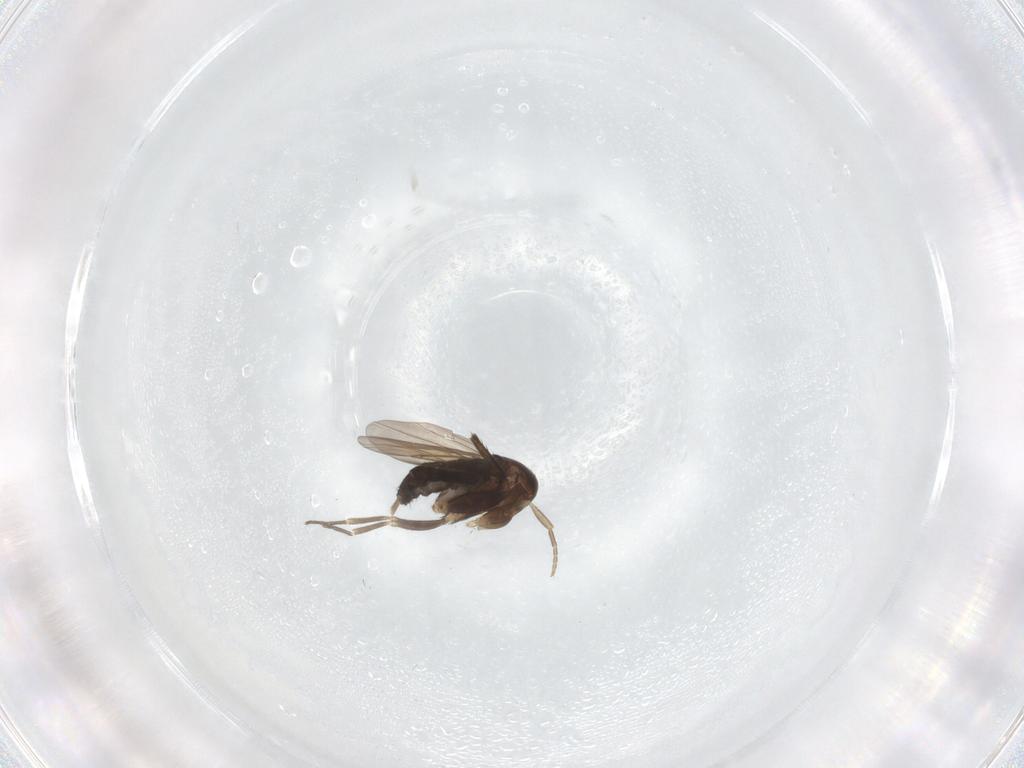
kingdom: Animalia
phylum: Arthropoda
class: Insecta
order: Diptera
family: Phoridae
